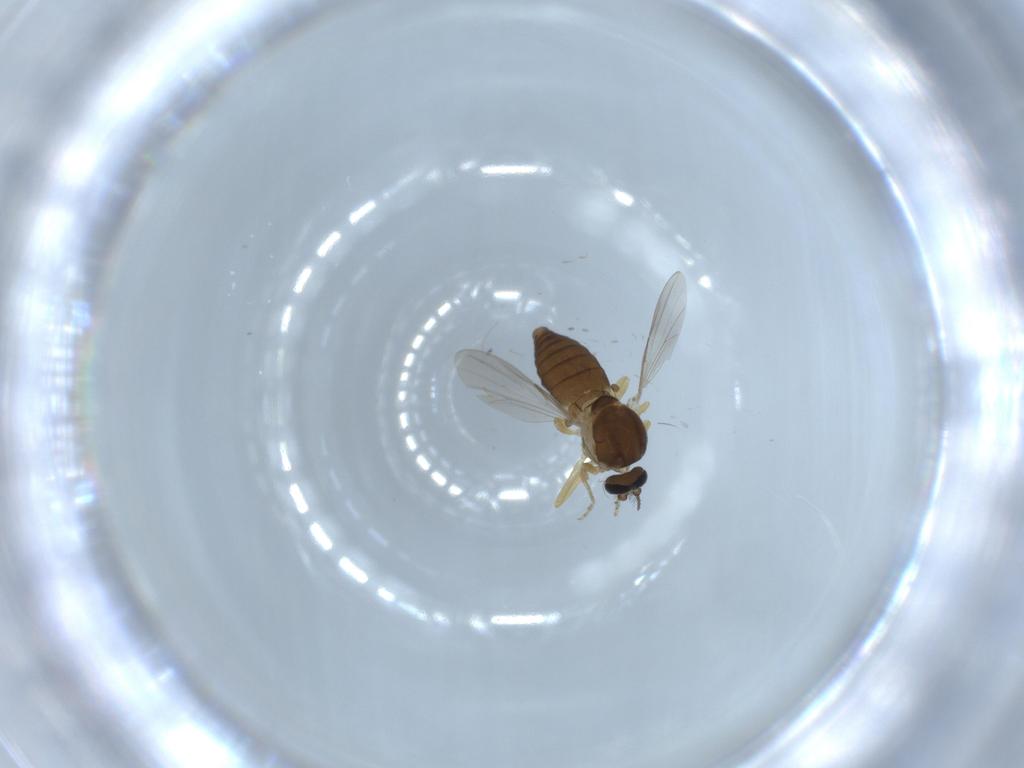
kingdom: Animalia
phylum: Arthropoda
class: Insecta
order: Diptera
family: Ceratopogonidae
